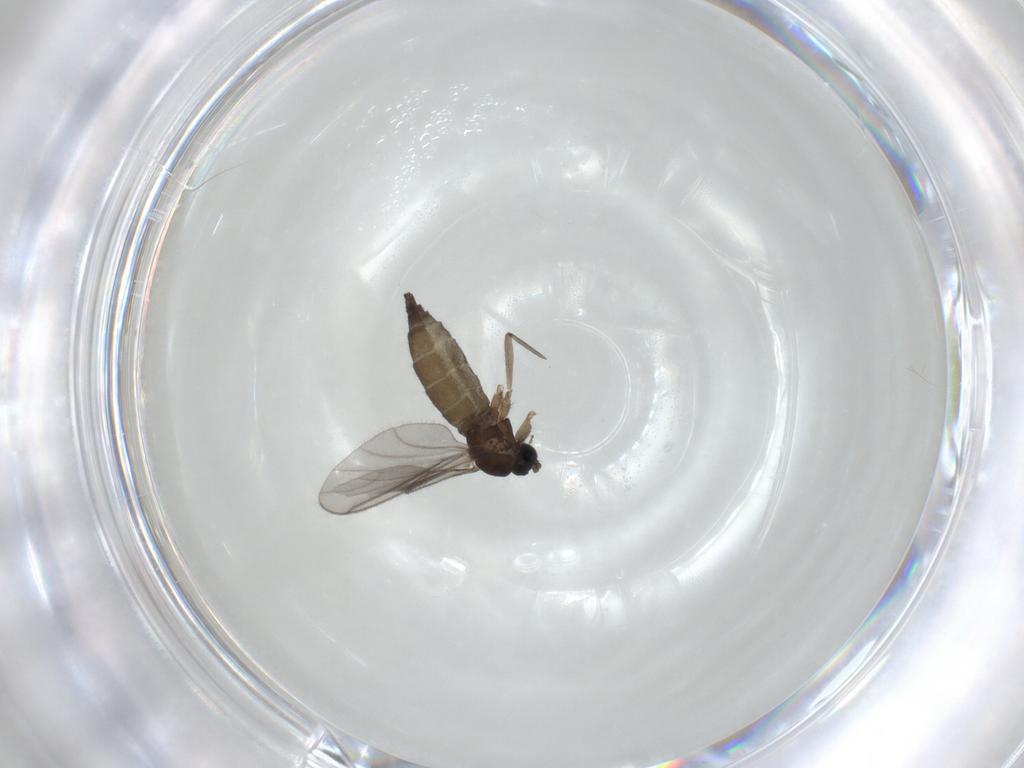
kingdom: Animalia
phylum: Arthropoda
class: Insecta
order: Diptera
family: Sciaridae
